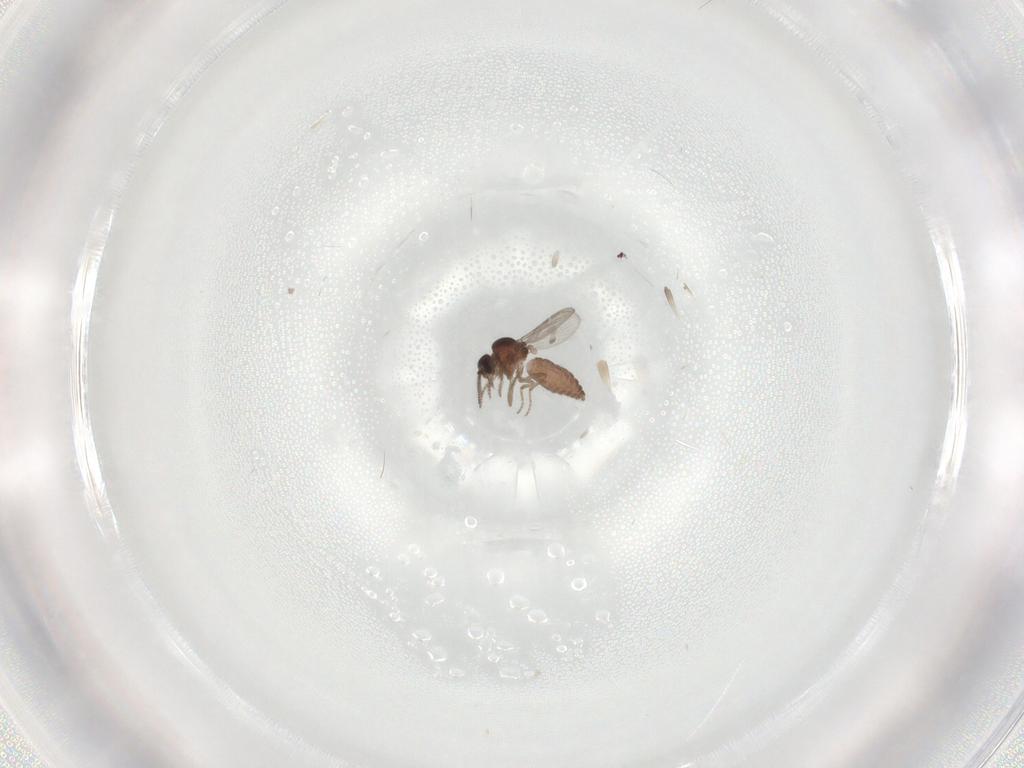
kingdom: Animalia
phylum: Arthropoda
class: Insecta
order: Diptera
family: Ceratopogonidae
